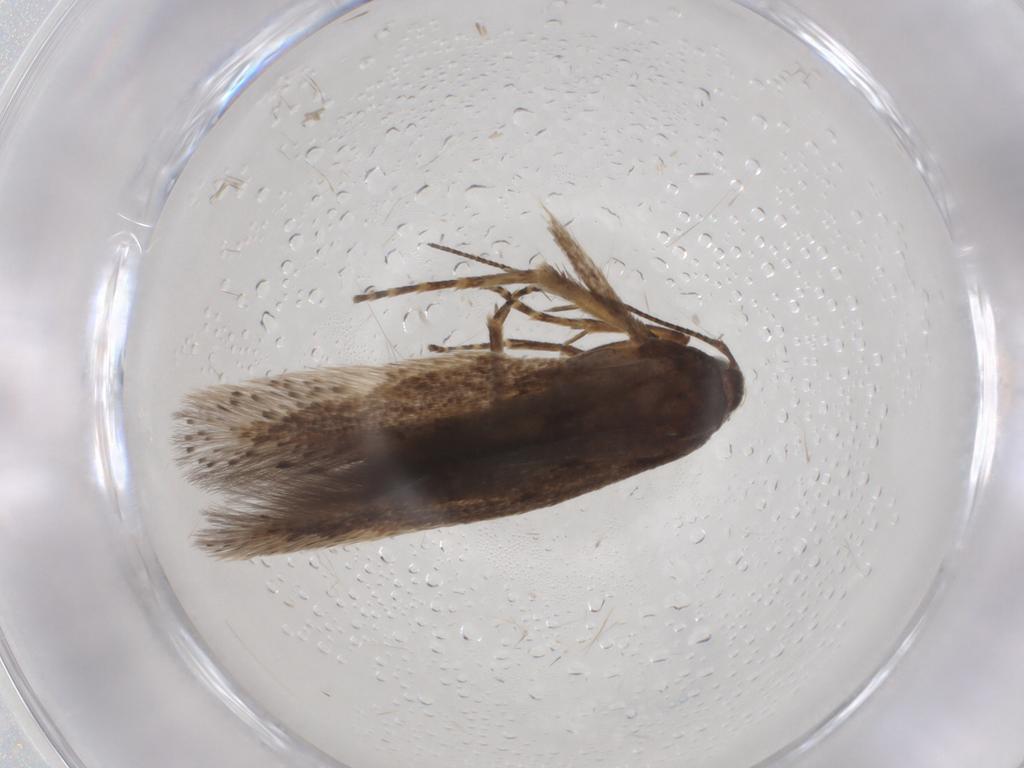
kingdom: Animalia
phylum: Arthropoda
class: Insecta
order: Lepidoptera
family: Gelechiidae
